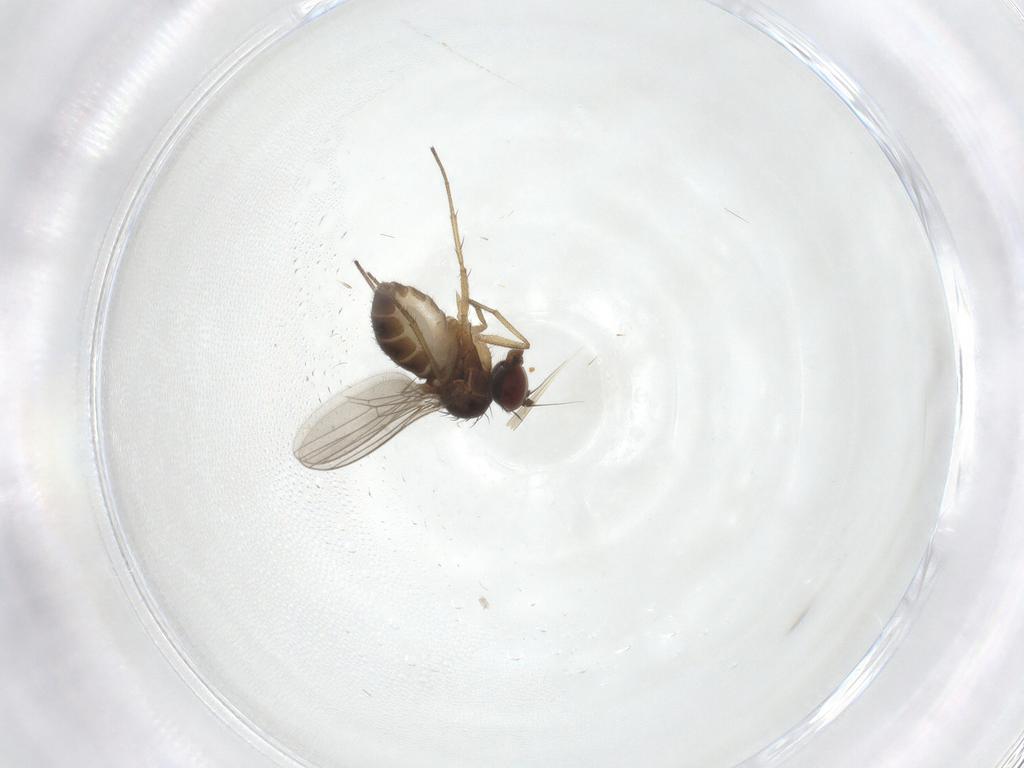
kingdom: Animalia
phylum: Arthropoda
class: Insecta
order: Diptera
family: Dolichopodidae
